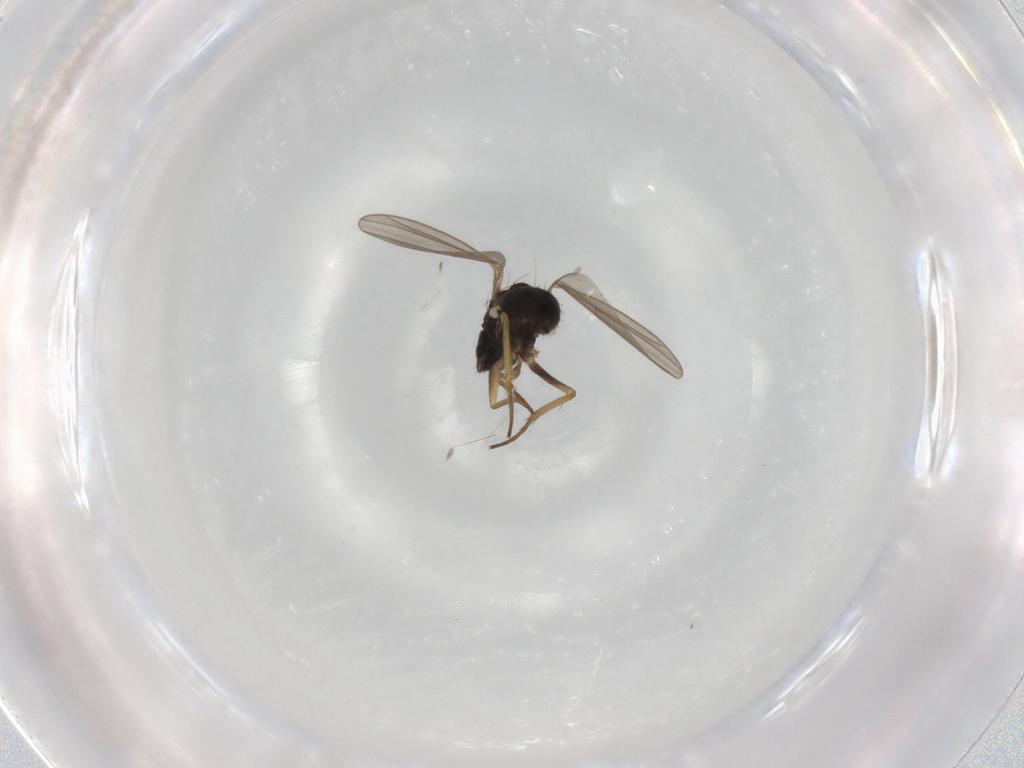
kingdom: Animalia
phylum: Arthropoda
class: Insecta
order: Diptera
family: Dolichopodidae
